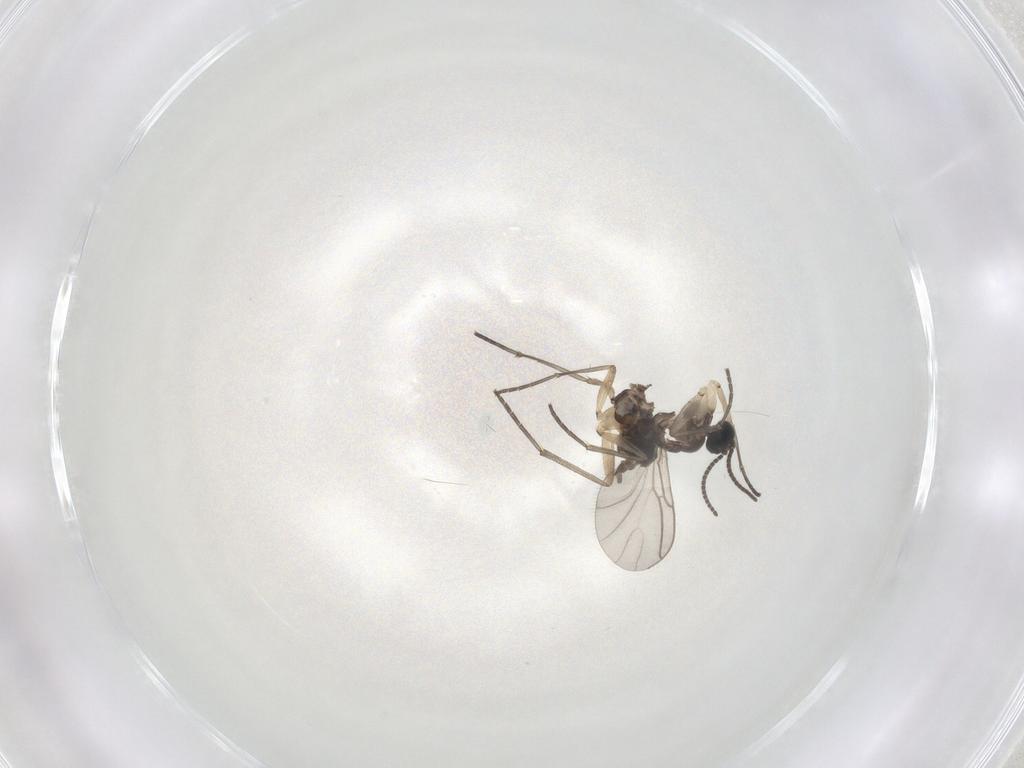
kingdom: Animalia
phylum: Arthropoda
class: Insecta
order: Diptera
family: Sciaridae
